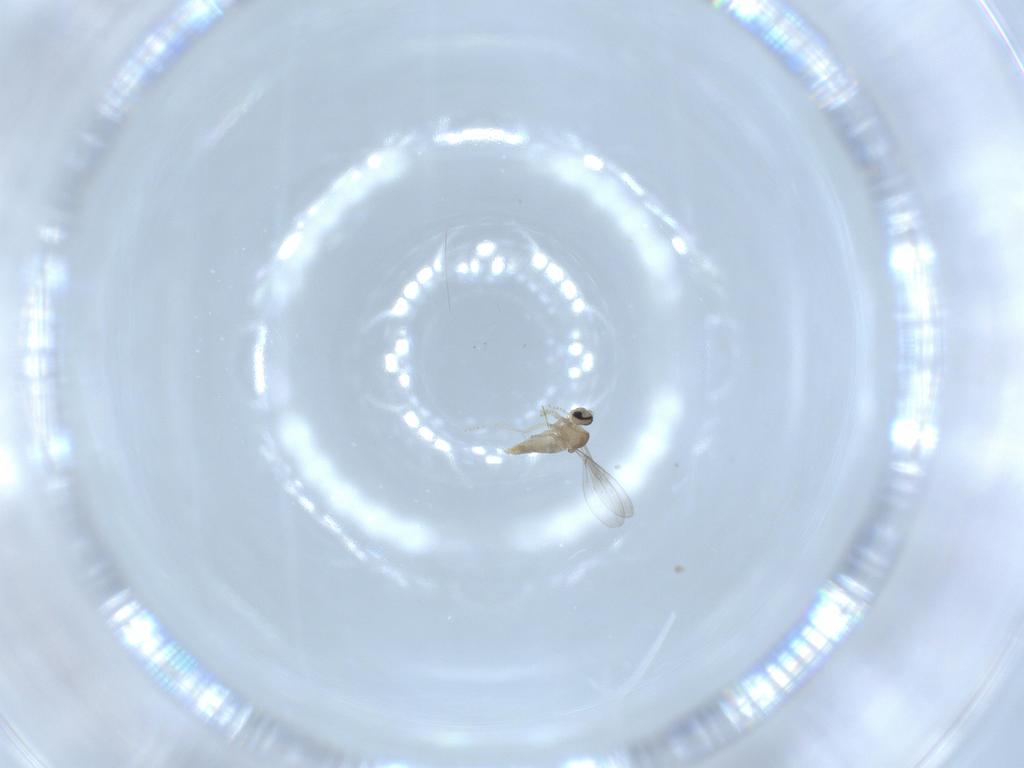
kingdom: Animalia
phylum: Arthropoda
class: Insecta
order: Diptera
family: Cecidomyiidae
